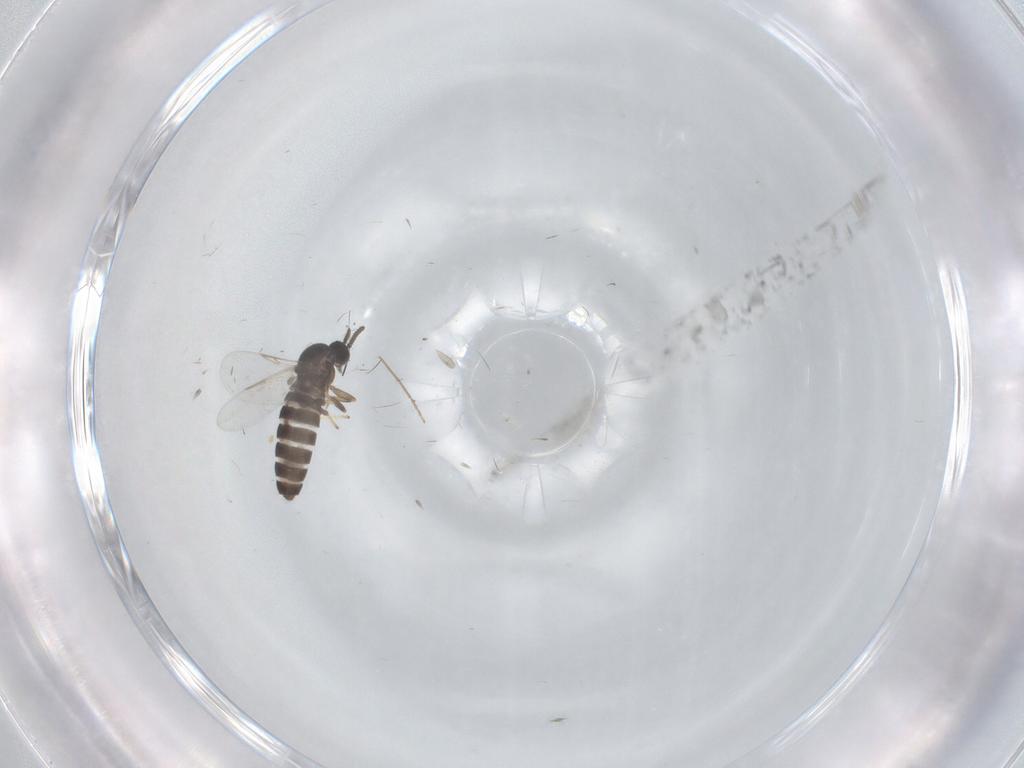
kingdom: Animalia
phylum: Arthropoda
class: Insecta
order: Diptera
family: Scatopsidae
